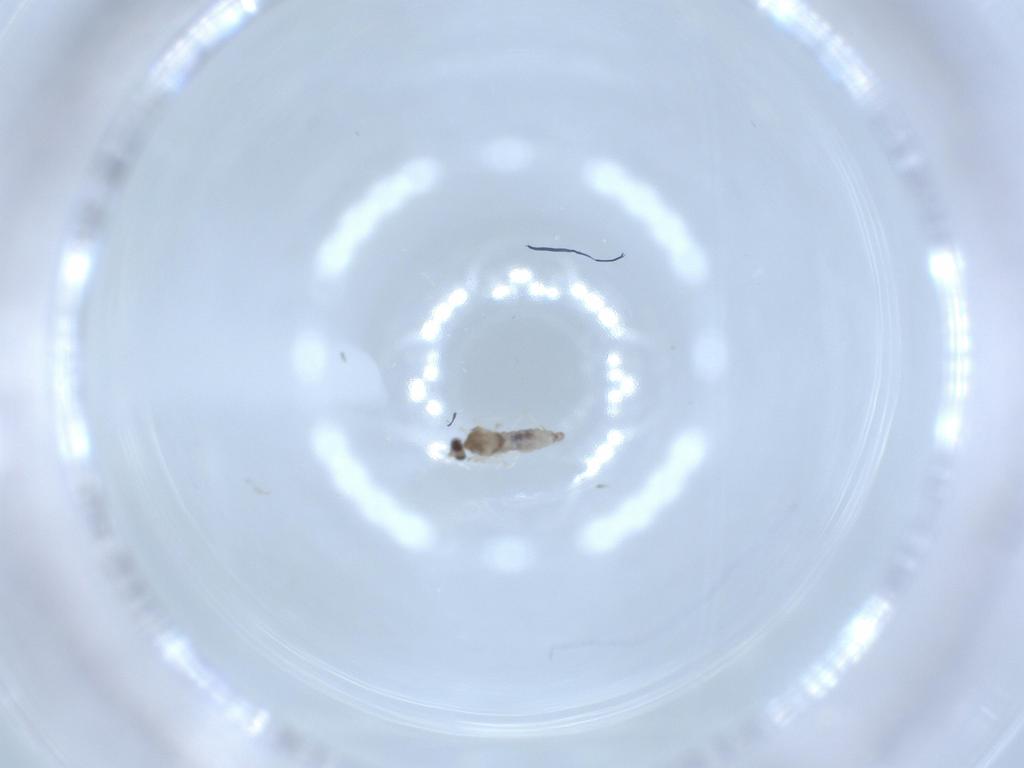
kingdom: Animalia
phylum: Arthropoda
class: Insecta
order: Diptera
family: Cecidomyiidae
